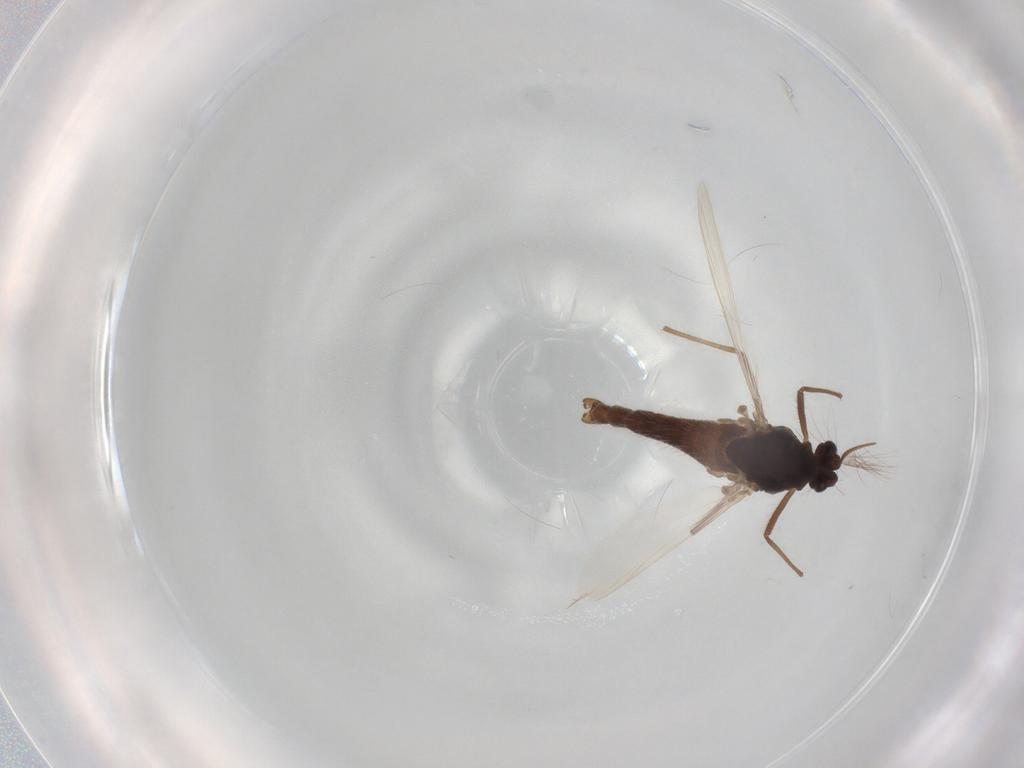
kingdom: Animalia
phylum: Arthropoda
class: Insecta
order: Diptera
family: Chironomidae
